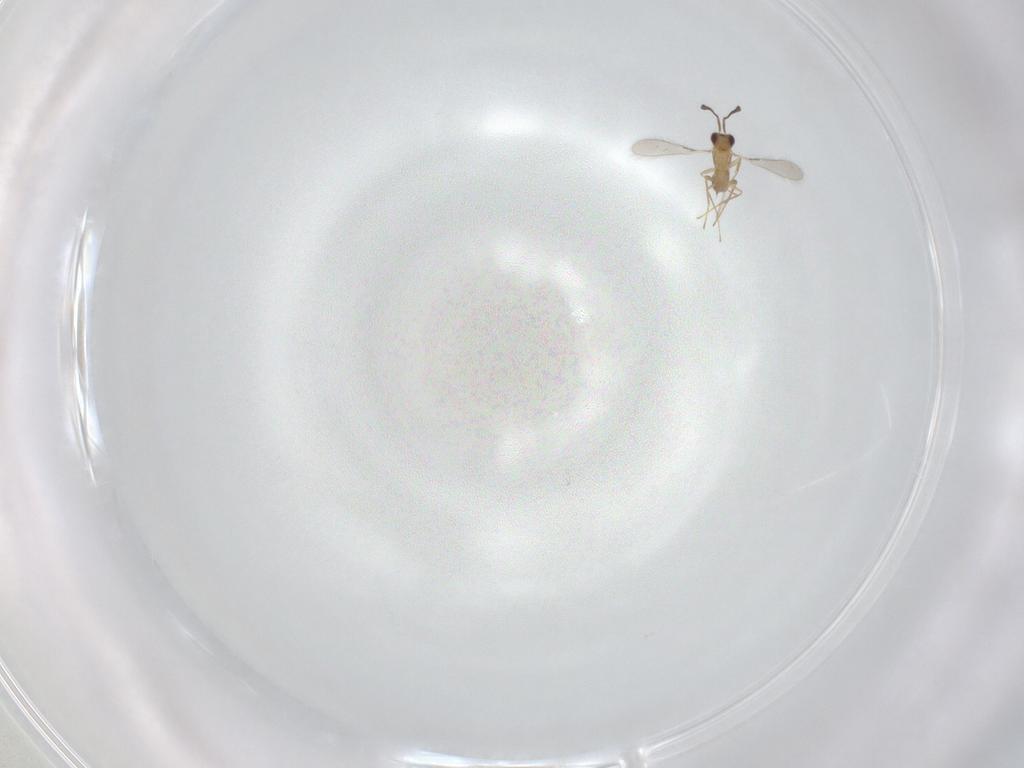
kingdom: Animalia
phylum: Arthropoda
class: Insecta
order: Hymenoptera
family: Mymaridae
